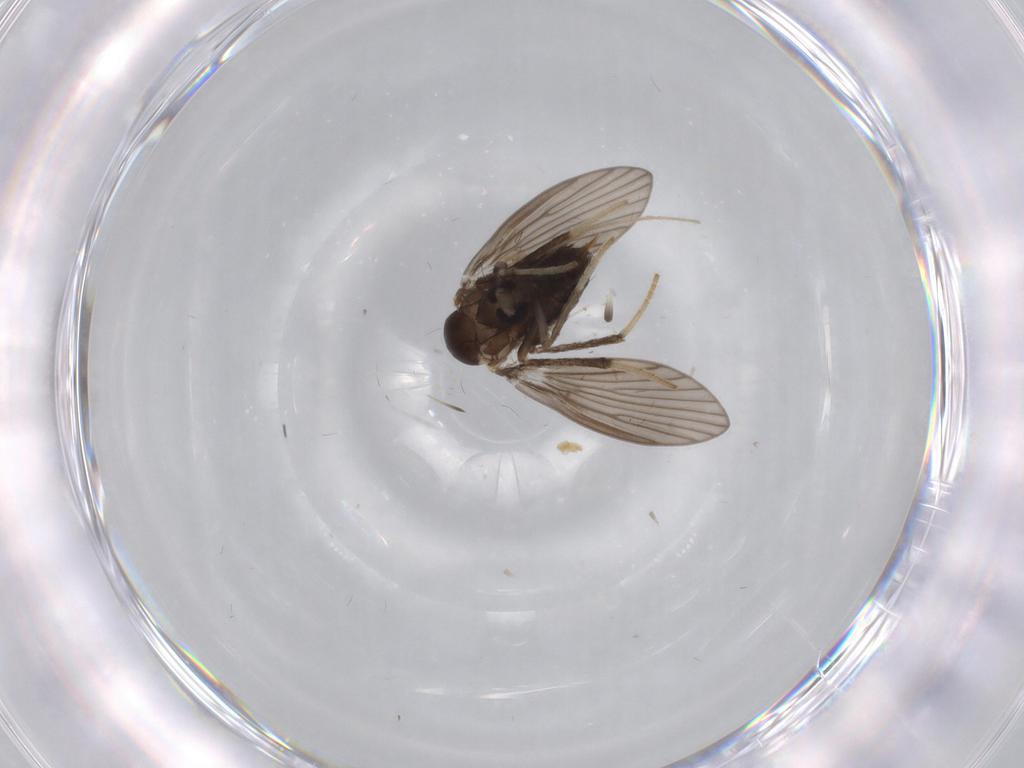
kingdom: Animalia
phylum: Arthropoda
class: Insecta
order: Diptera
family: Psychodidae
